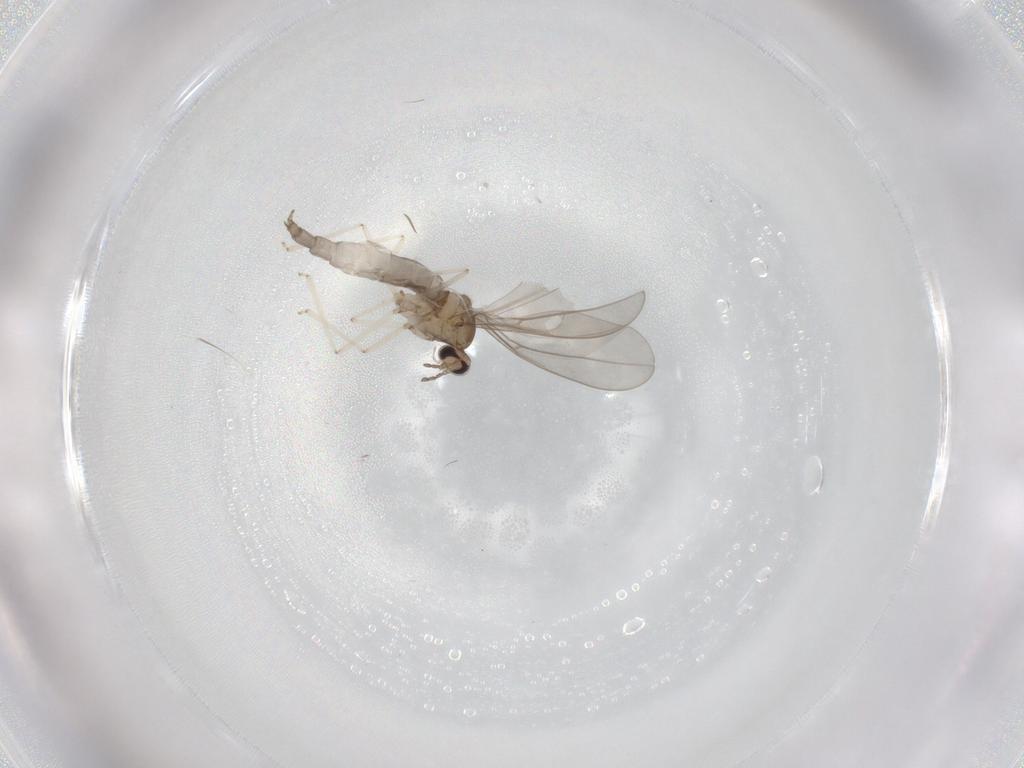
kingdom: Animalia
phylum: Arthropoda
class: Insecta
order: Diptera
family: Cecidomyiidae
